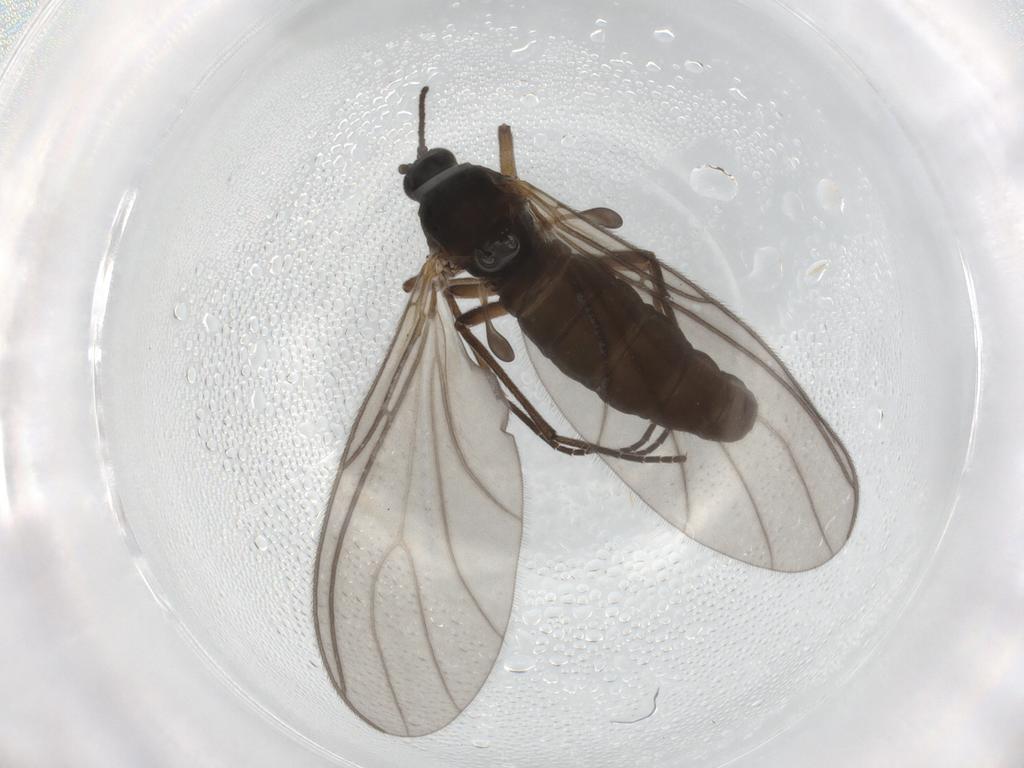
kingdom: Animalia
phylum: Arthropoda
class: Insecta
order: Diptera
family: Sciaridae
